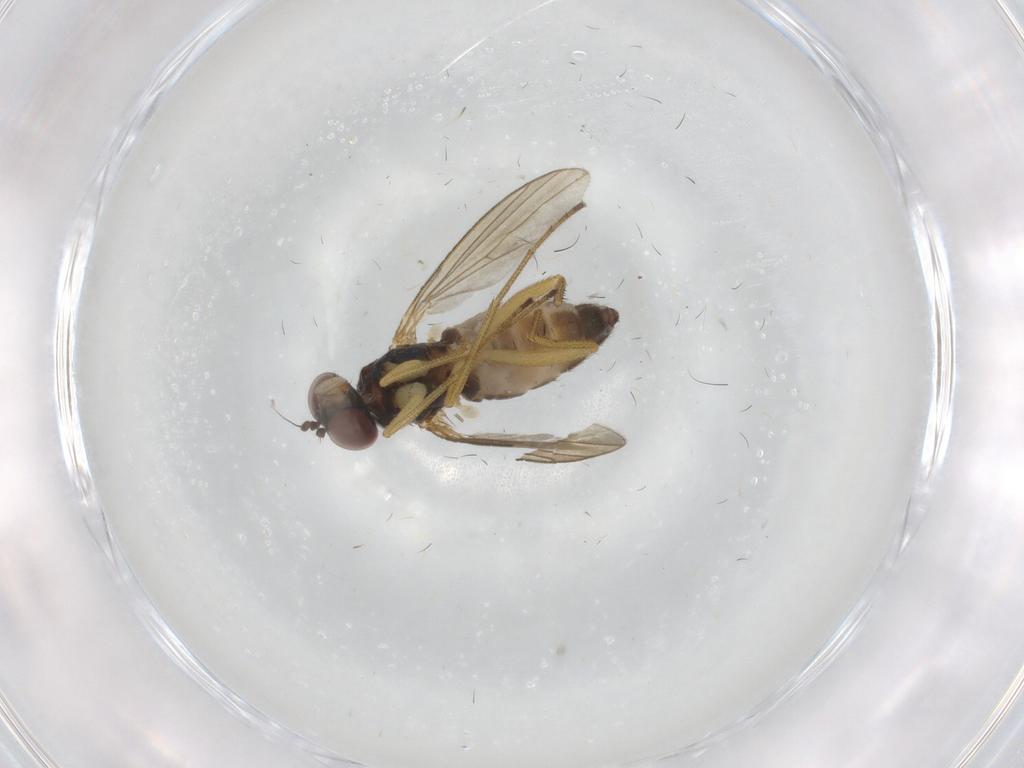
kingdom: Animalia
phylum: Arthropoda
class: Insecta
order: Diptera
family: Dolichopodidae
